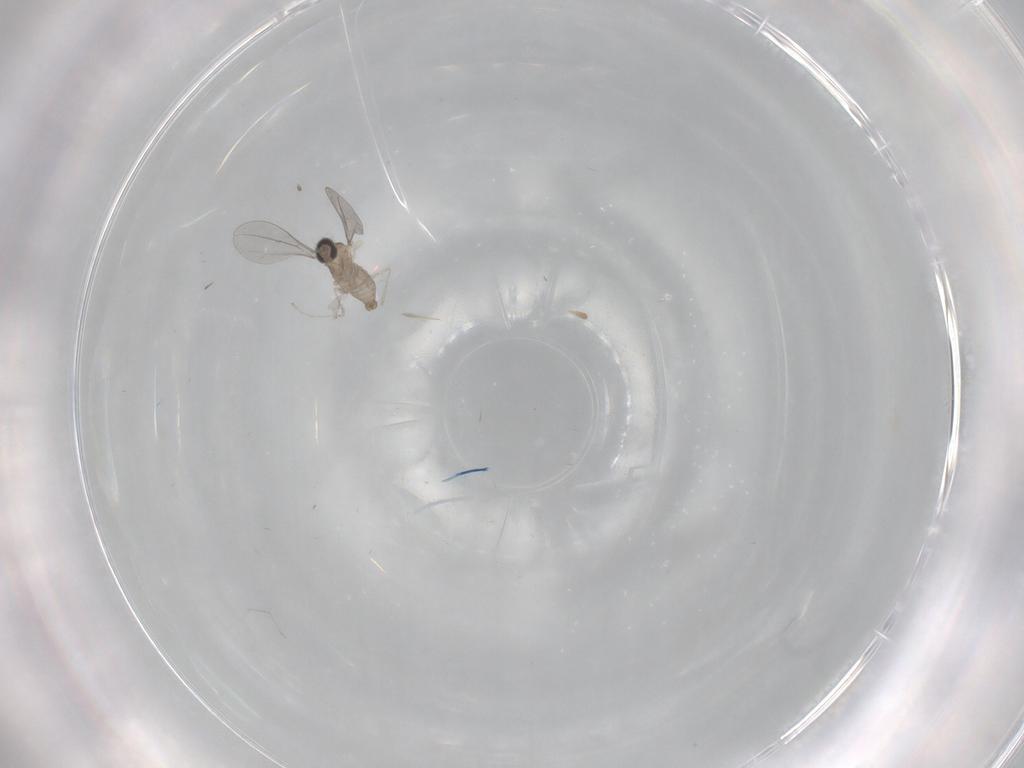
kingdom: Animalia
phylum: Arthropoda
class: Insecta
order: Diptera
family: Cecidomyiidae
